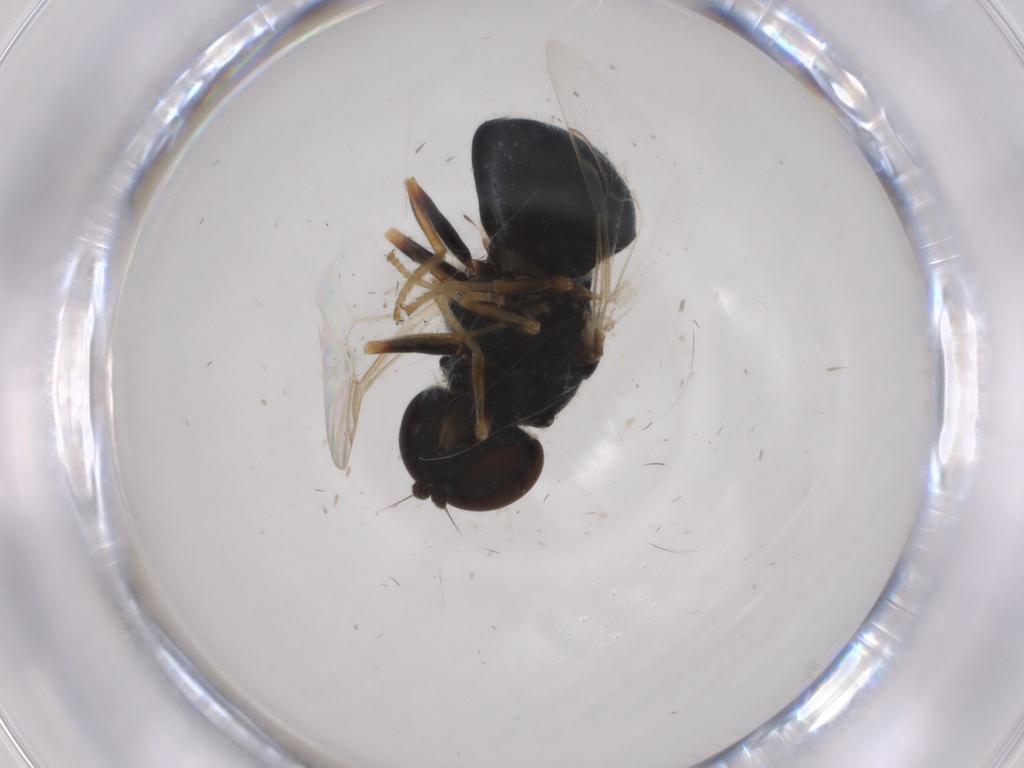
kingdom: Animalia
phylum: Arthropoda
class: Insecta
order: Diptera
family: Stratiomyidae
